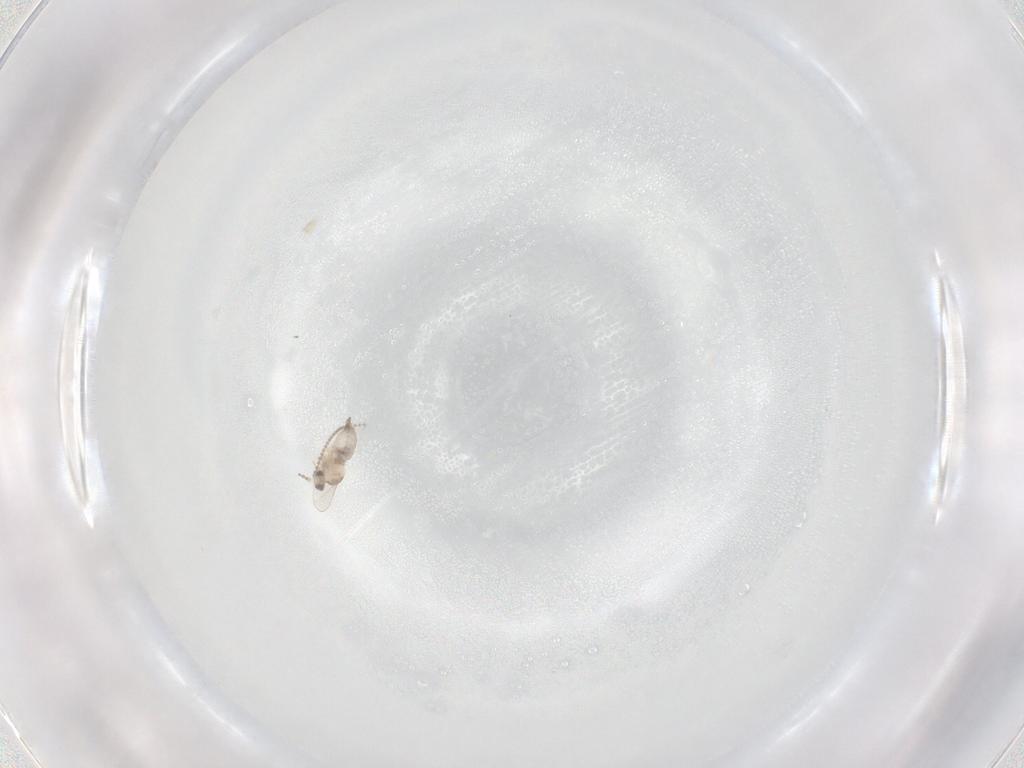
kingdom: Animalia
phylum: Arthropoda
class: Insecta
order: Diptera
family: Cecidomyiidae
